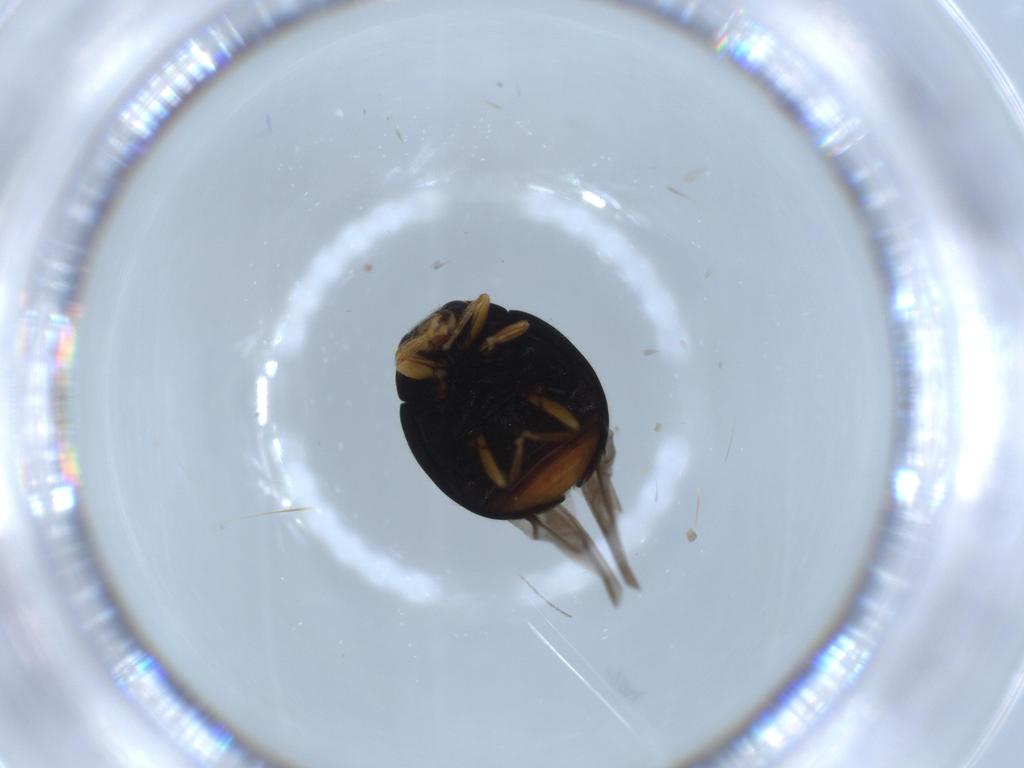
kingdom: Animalia
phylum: Arthropoda
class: Insecta
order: Coleoptera
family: Coccinellidae
